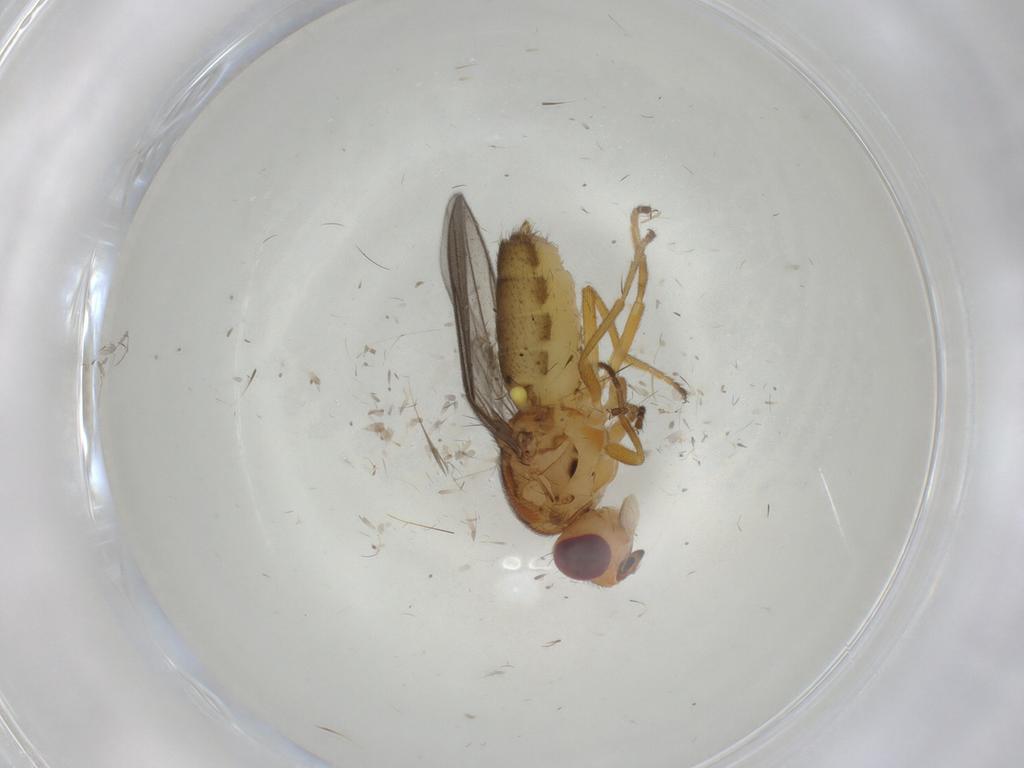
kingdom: Animalia
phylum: Arthropoda
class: Insecta
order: Diptera
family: Chloropidae
